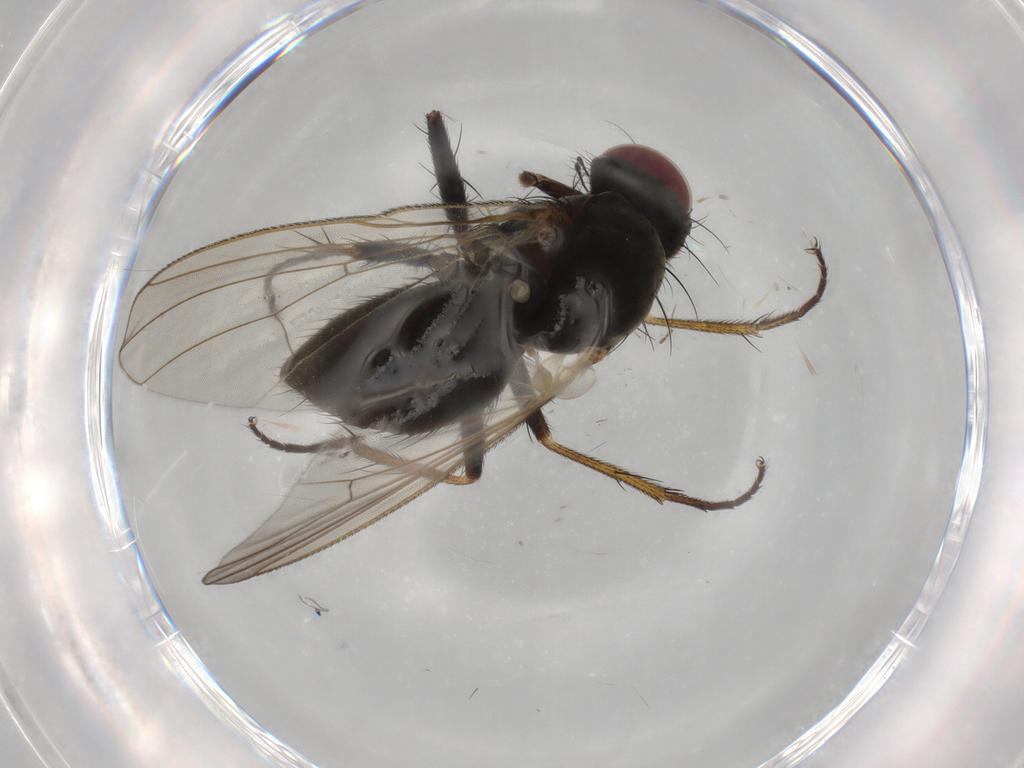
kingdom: Animalia
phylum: Arthropoda
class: Insecta
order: Diptera
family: Muscidae
